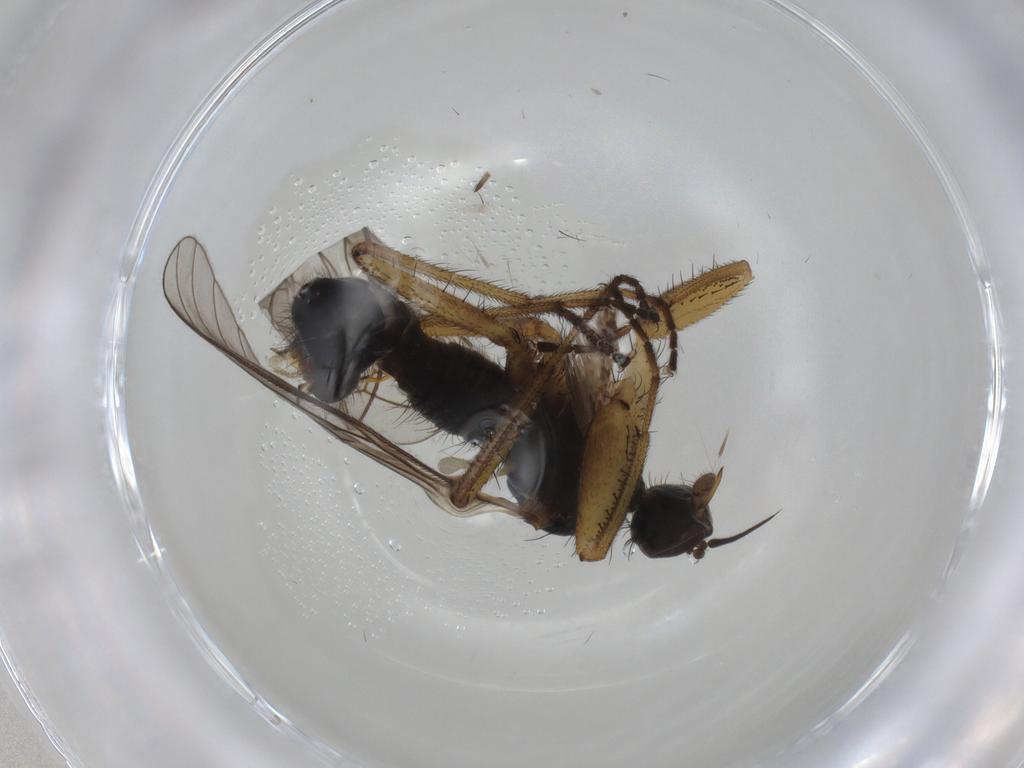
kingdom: Animalia
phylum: Arthropoda
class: Insecta
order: Diptera
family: Empididae
